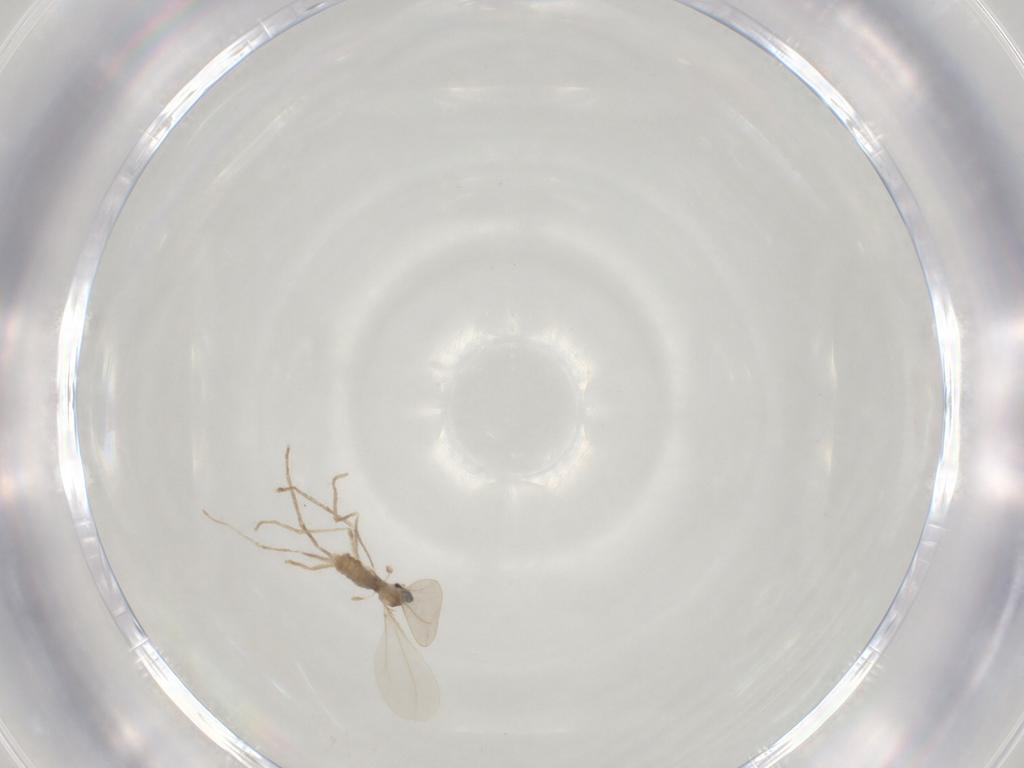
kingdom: Animalia
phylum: Arthropoda
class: Insecta
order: Diptera
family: Cecidomyiidae
